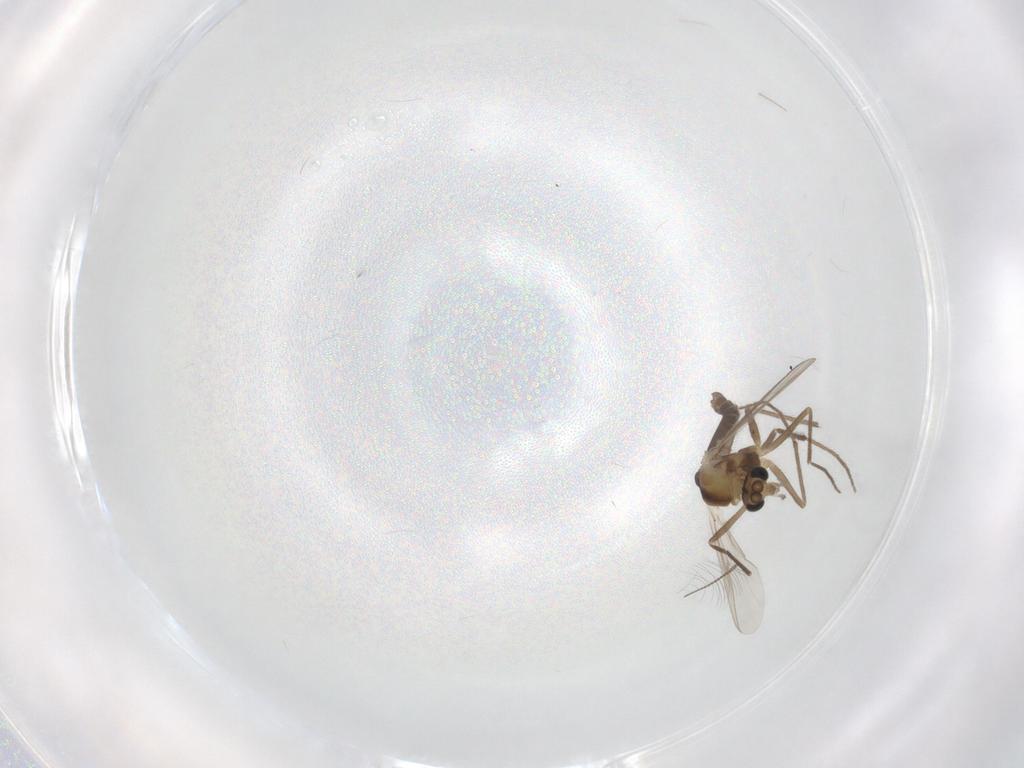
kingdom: Animalia
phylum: Arthropoda
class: Insecta
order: Diptera
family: Chironomidae
